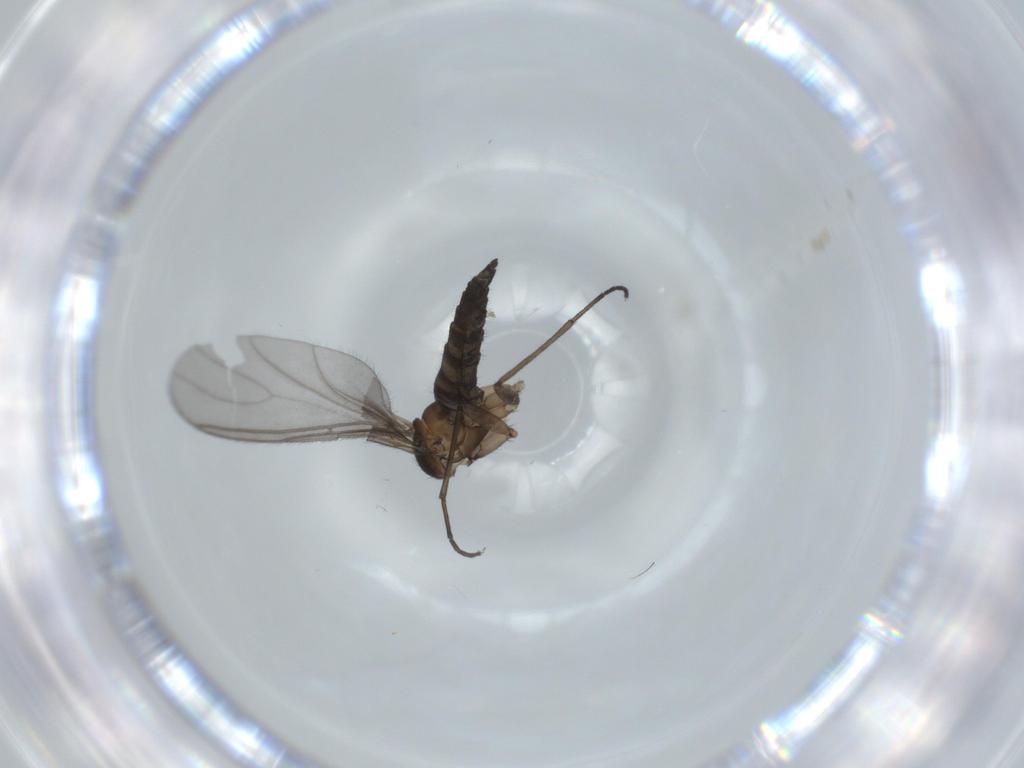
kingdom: Animalia
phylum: Arthropoda
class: Insecta
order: Diptera
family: Sciaridae
